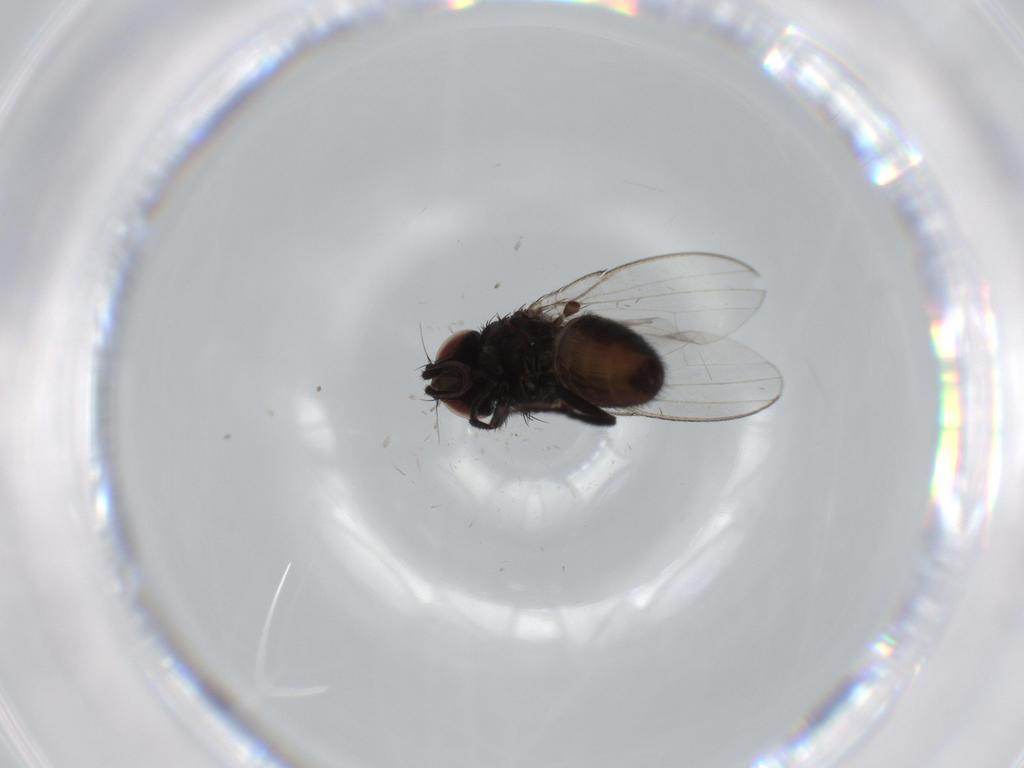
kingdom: Animalia
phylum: Arthropoda
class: Insecta
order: Diptera
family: Milichiidae
